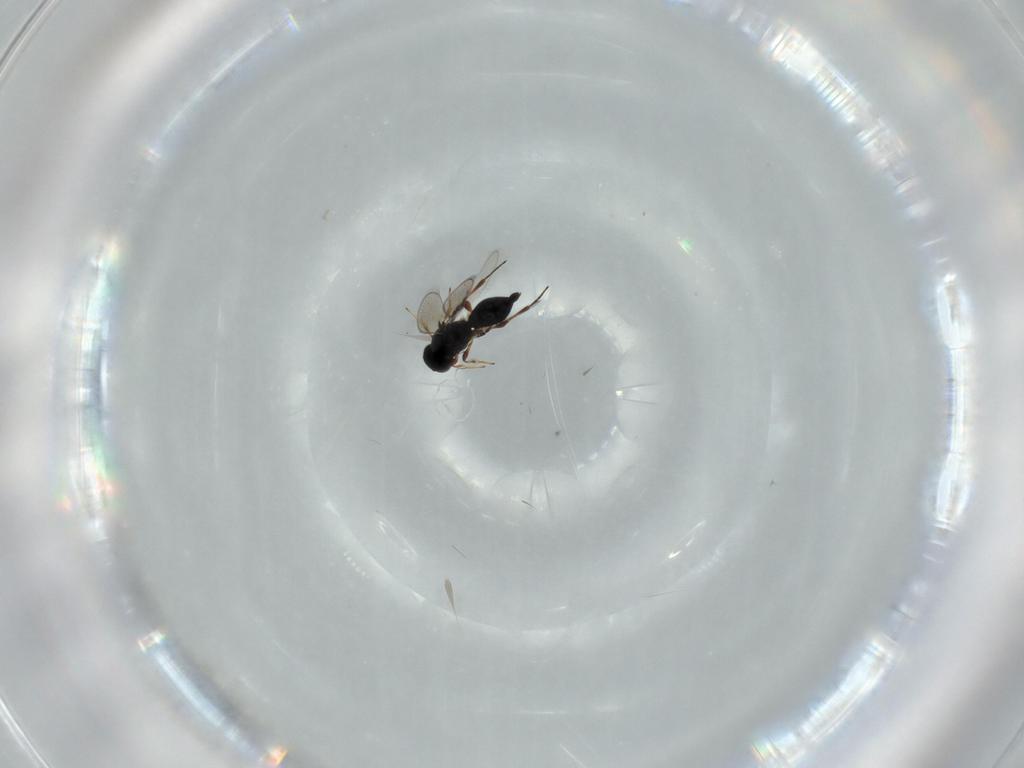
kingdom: Animalia
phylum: Arthropoda
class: Insecta
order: Hymenoptera
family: Platygastridae
